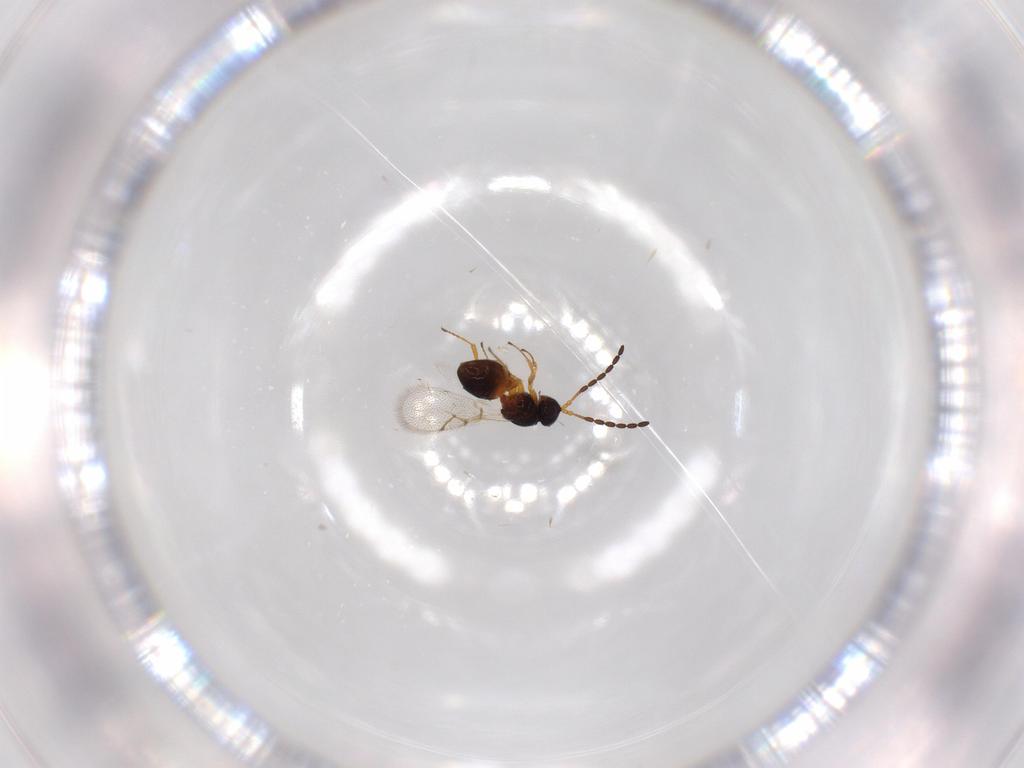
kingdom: Animalia
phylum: Arthropoda
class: Insecta
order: Hymenoptera
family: Figitidae
